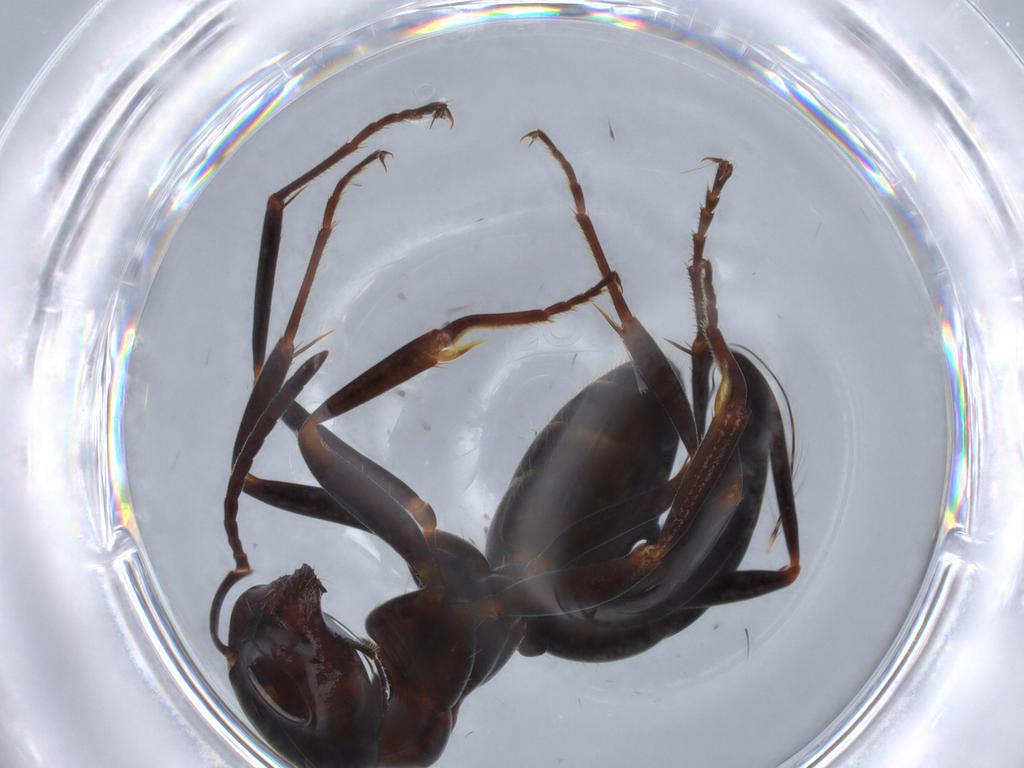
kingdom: Animalia
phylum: Arthropoda
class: Insecta
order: Hymenoptera
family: Formicidae
